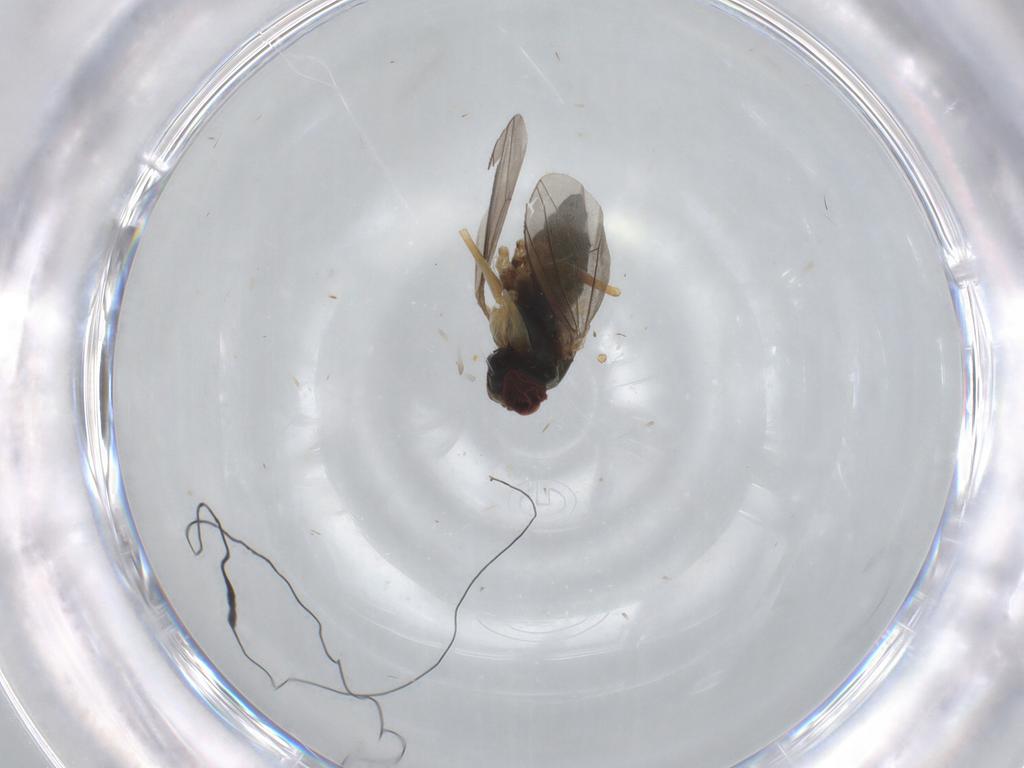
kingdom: Animalia
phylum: Arthropoda
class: Insecta
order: Diptera
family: Dolichopodidae
